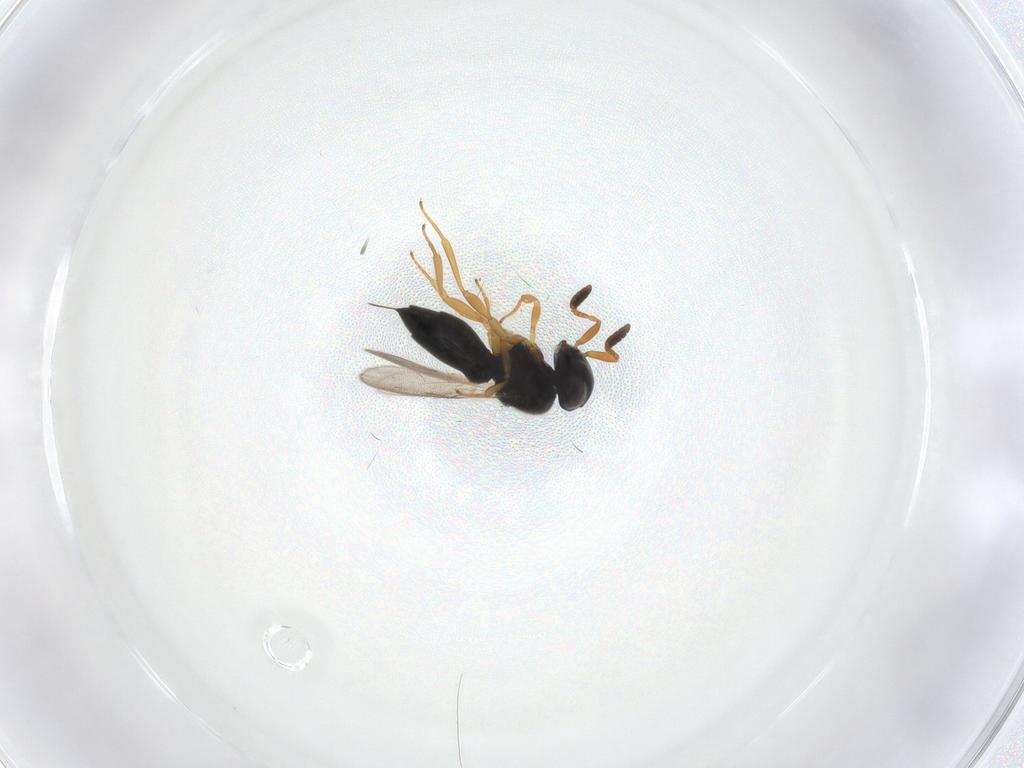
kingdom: Animalia
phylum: Arthropoda
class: Insecta
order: Hymenoptera
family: Scelionidae
